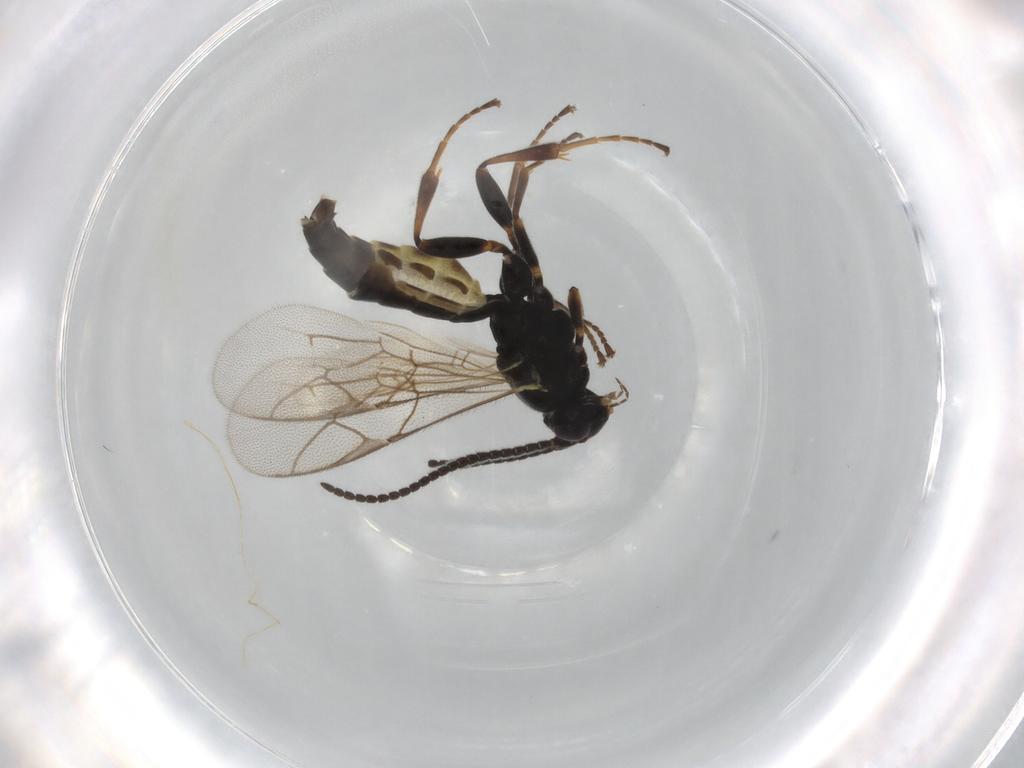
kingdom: Animalia
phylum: Arthropoda
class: Insecta
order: Hymenoptera
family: Ichneumonidae
